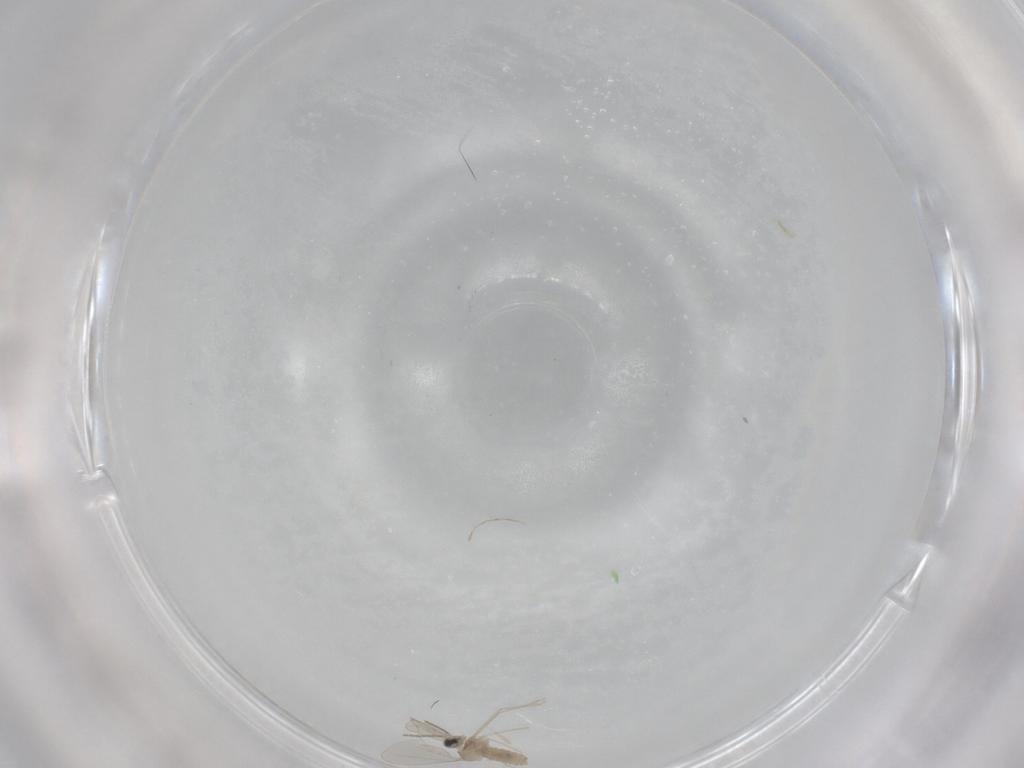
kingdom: Animalia
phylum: Arthropoda
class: Insecta
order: Diptera
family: Cecidomyiidae
